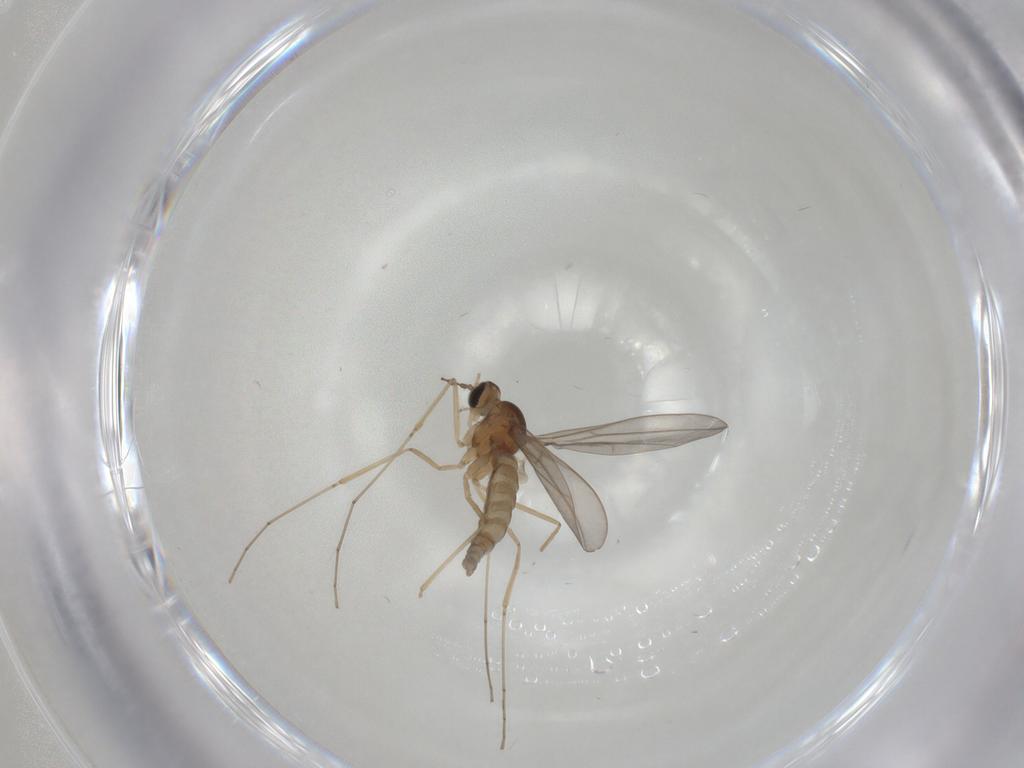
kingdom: Animalia
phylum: Arthropoda
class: Insecta
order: Diptera
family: Cecidomyiidae
